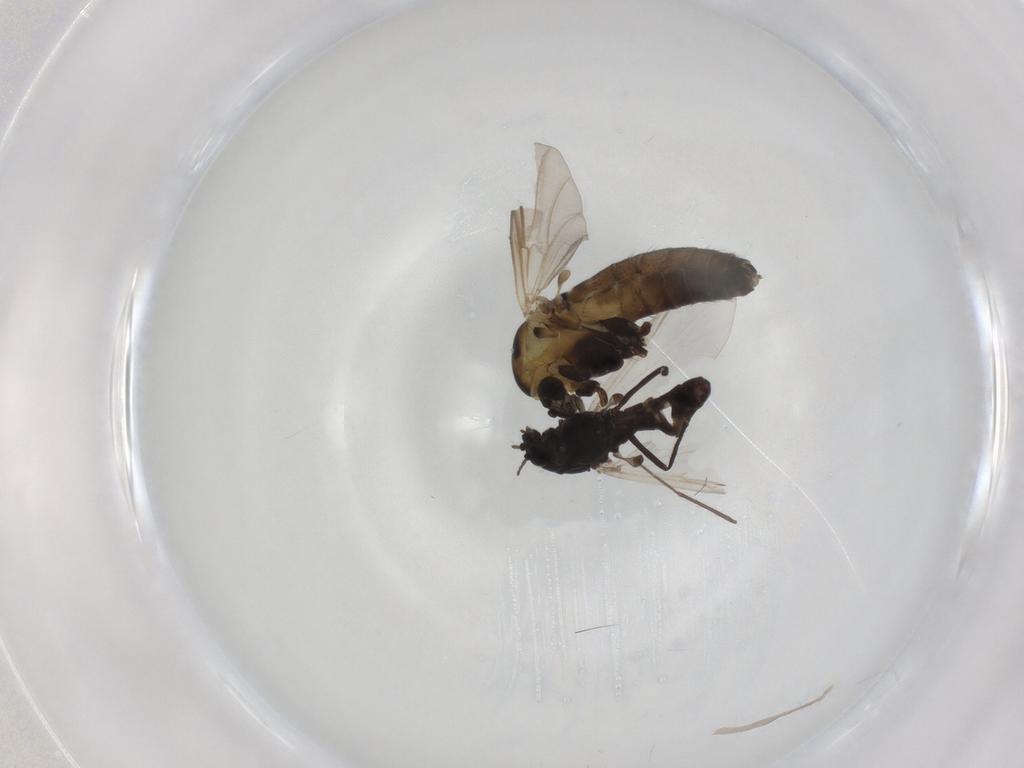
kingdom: Animalia
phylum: Arthropoda
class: Insecta
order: Diptera
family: Chironomidae
